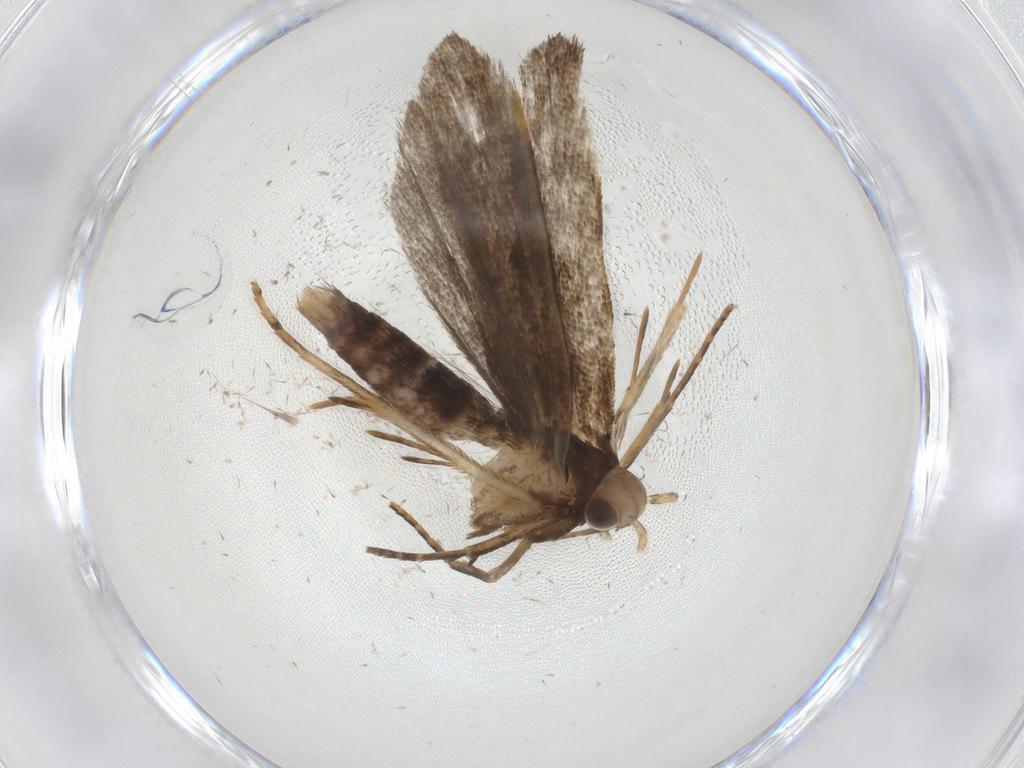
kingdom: Animalia
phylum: Arthropoda
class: Insecta
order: Lepidoptera
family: Gelechiidae
